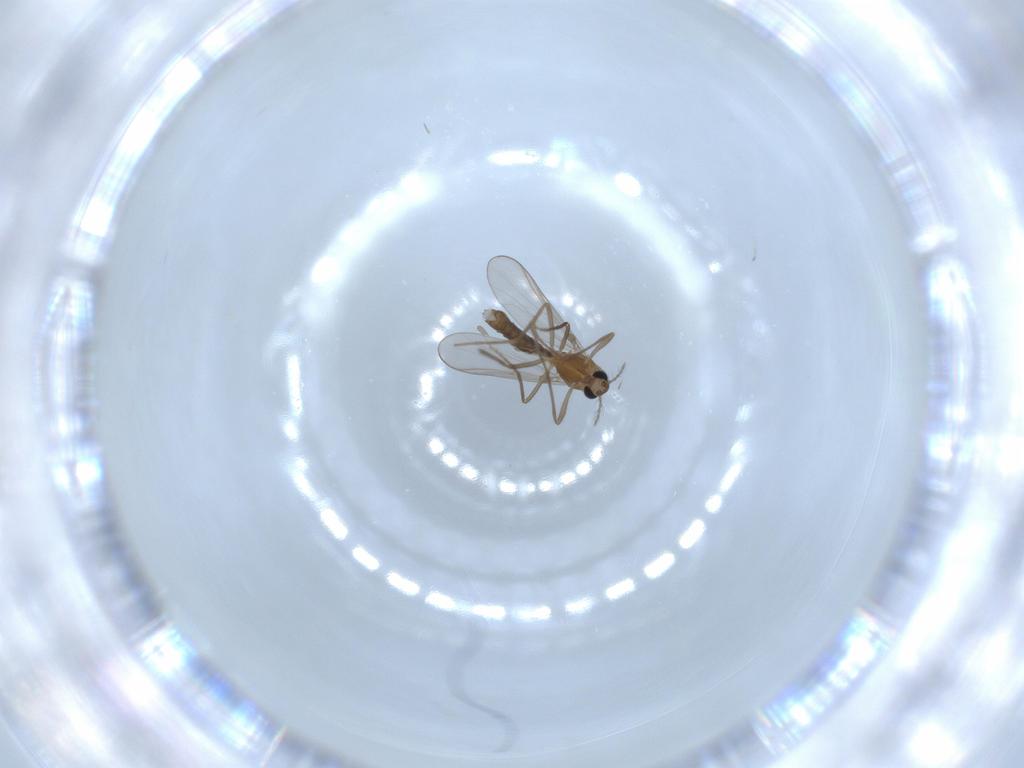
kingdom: Animalia
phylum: Arthropoda
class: Insecta
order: Diptera
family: Chironomidae
